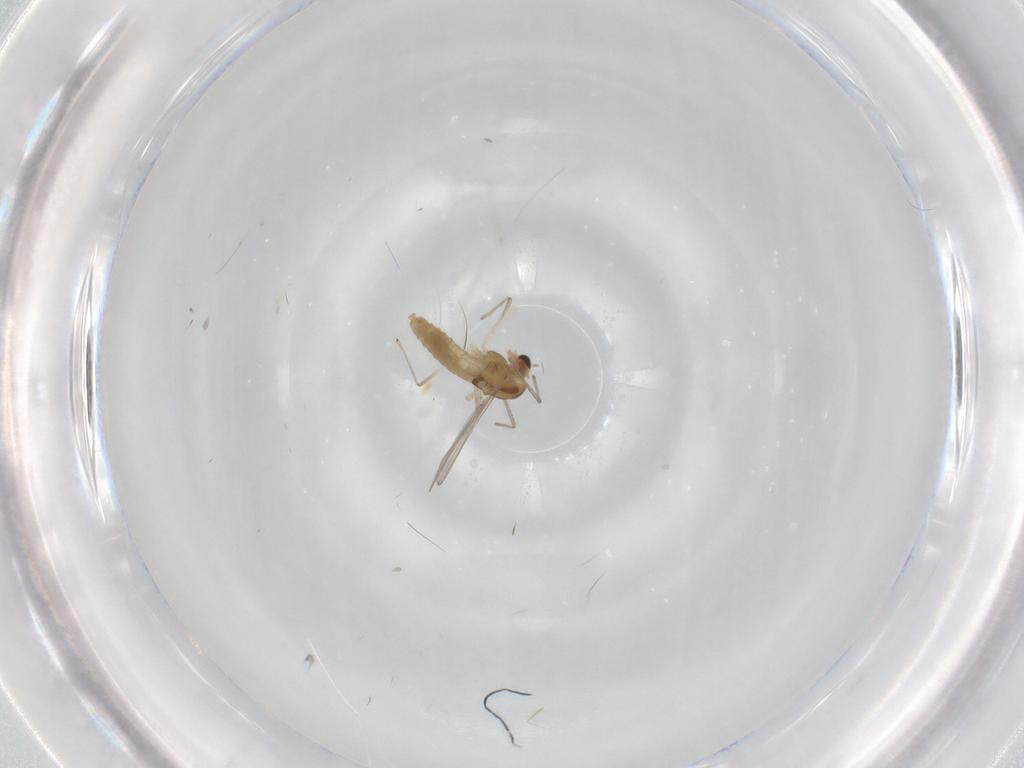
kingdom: Animalia
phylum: Arthropoda
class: Insecta
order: Diptera
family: Chironomidae
